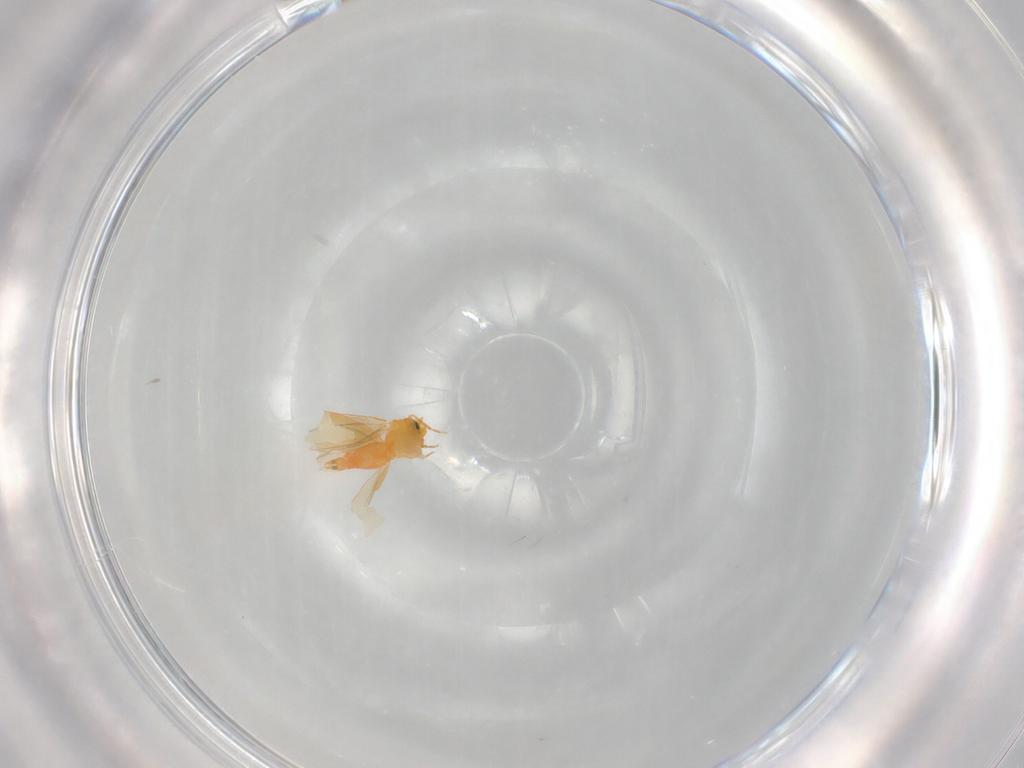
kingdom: Animalia
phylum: Arthropoda
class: Insecta
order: Hemiptera
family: Aleyrodidae
